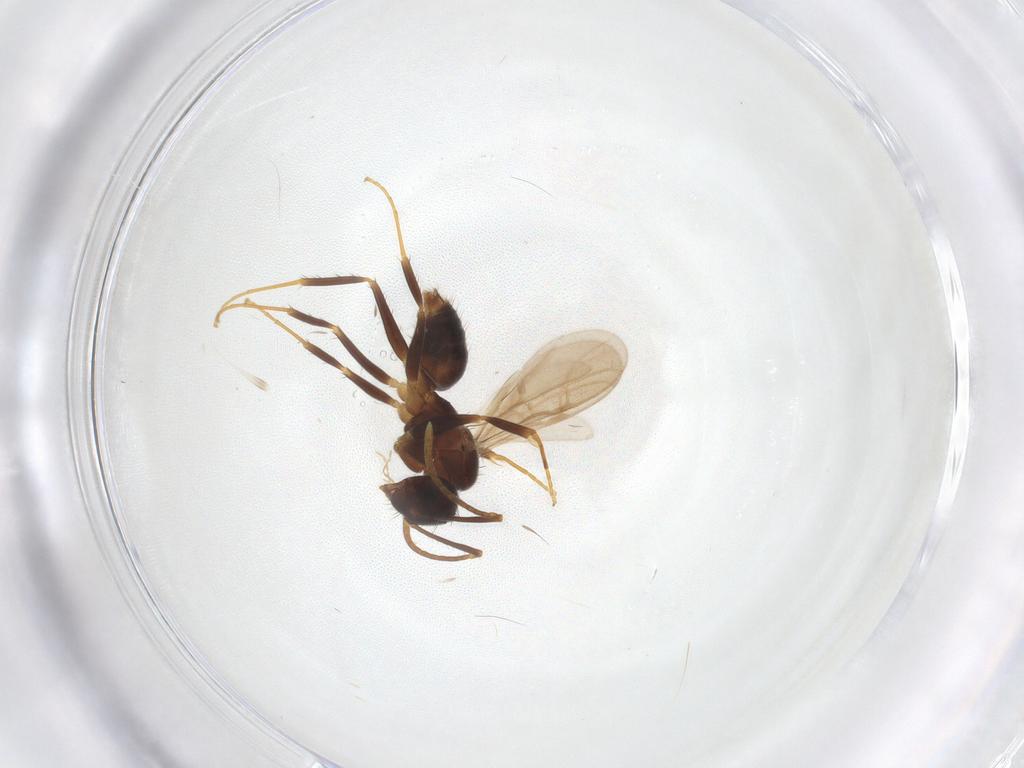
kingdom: Animalia
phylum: Arthropoda
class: Insecta
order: Hymenoptera
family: Formicidae
